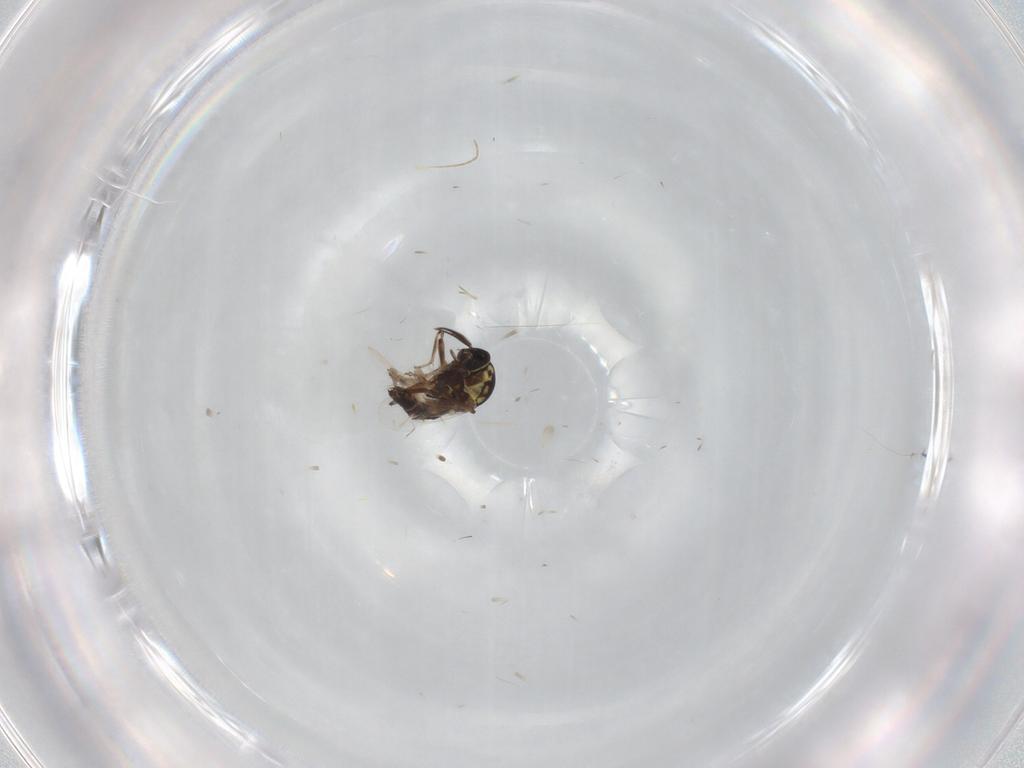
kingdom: Animalia
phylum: Arthropoda
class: Insecta
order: Diptera
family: Ceratopogonidae
